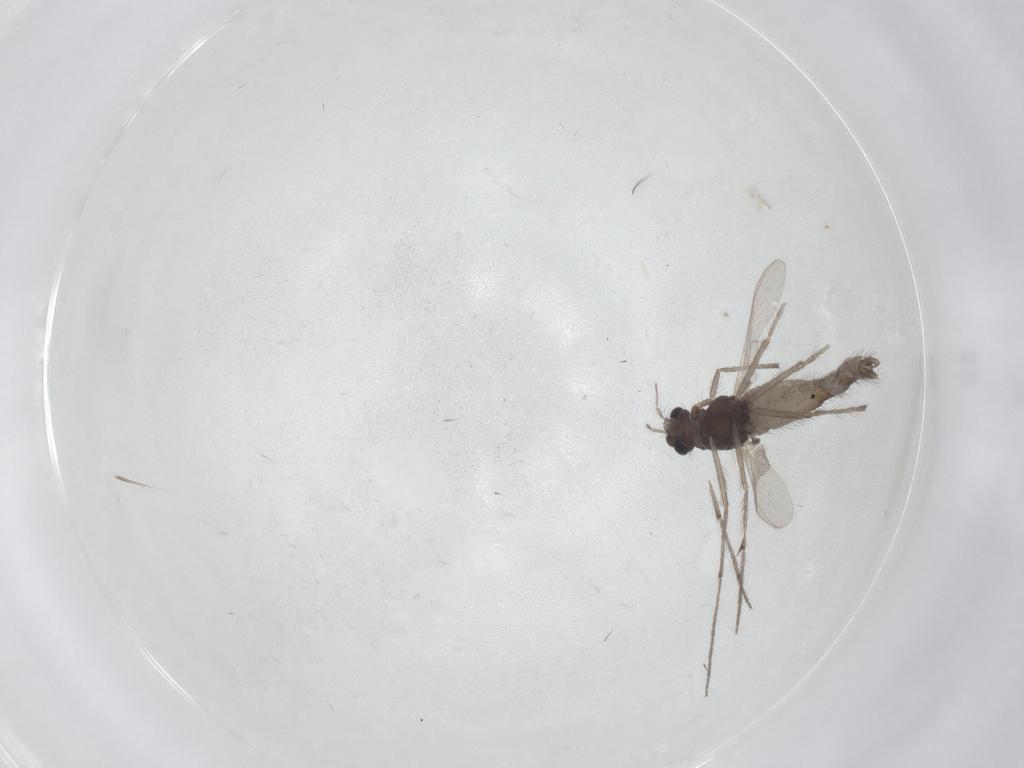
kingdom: Animalia
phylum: Arthropoda
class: Insecta
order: Diptera
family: Chironomidae
